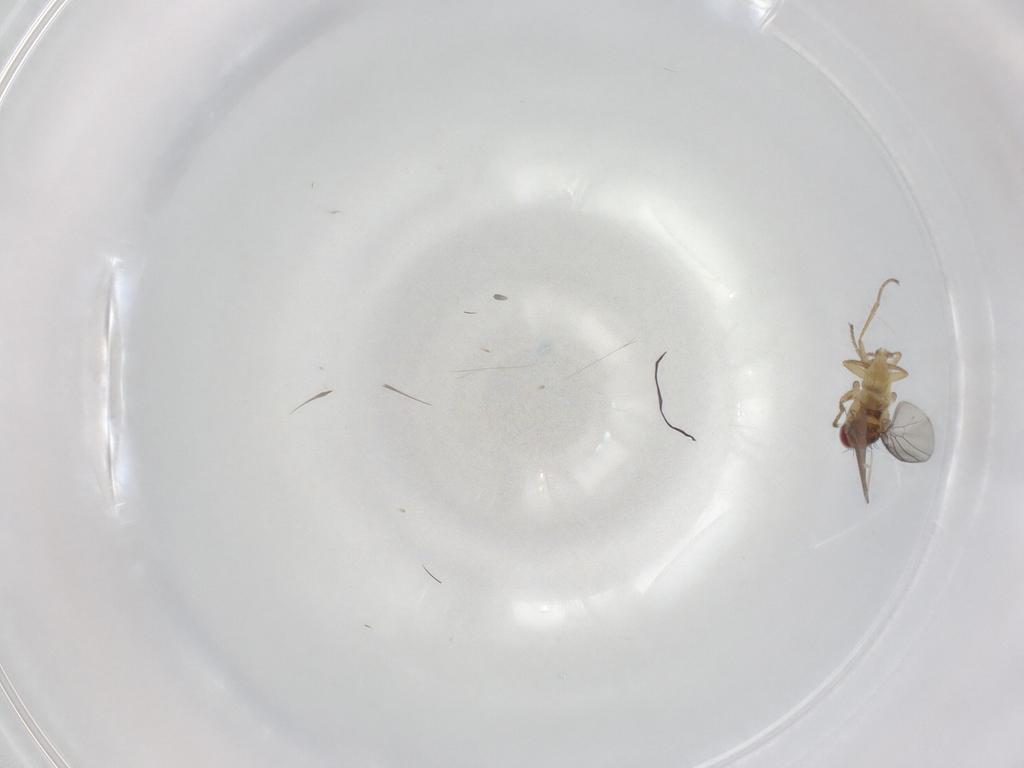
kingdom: Animalia
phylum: Arthropoda
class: Insecta
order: Diptera
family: Agromyzidae
